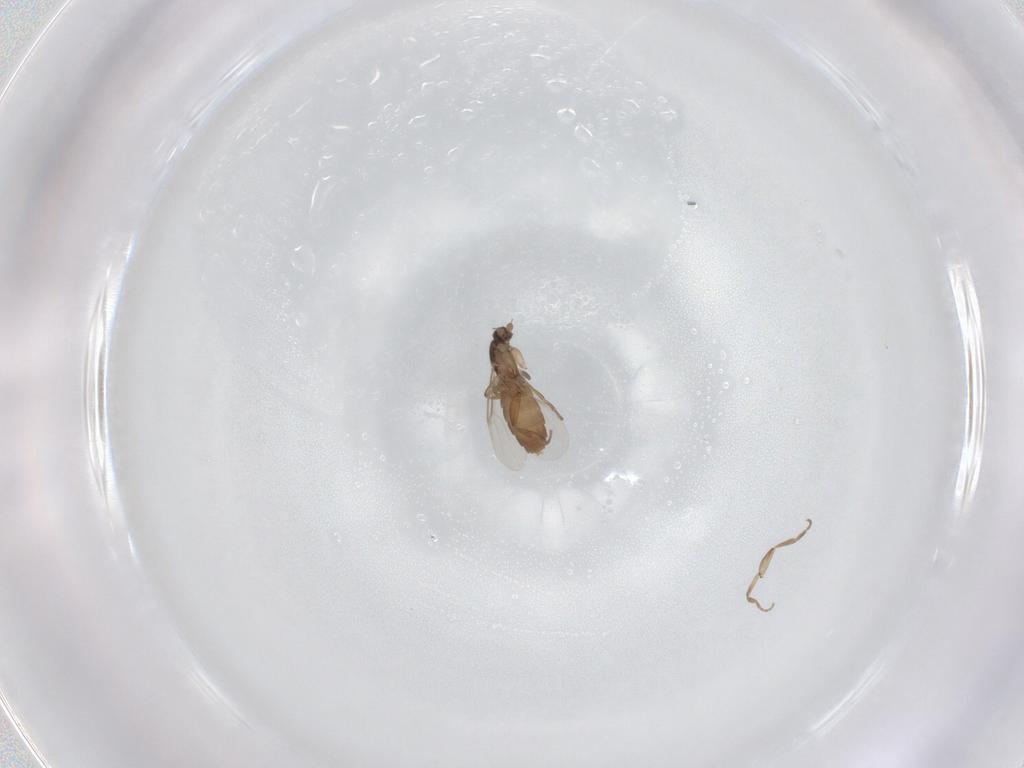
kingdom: Animalia
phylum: Arthropoda
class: Insecta
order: Diptera
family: Phoridae
